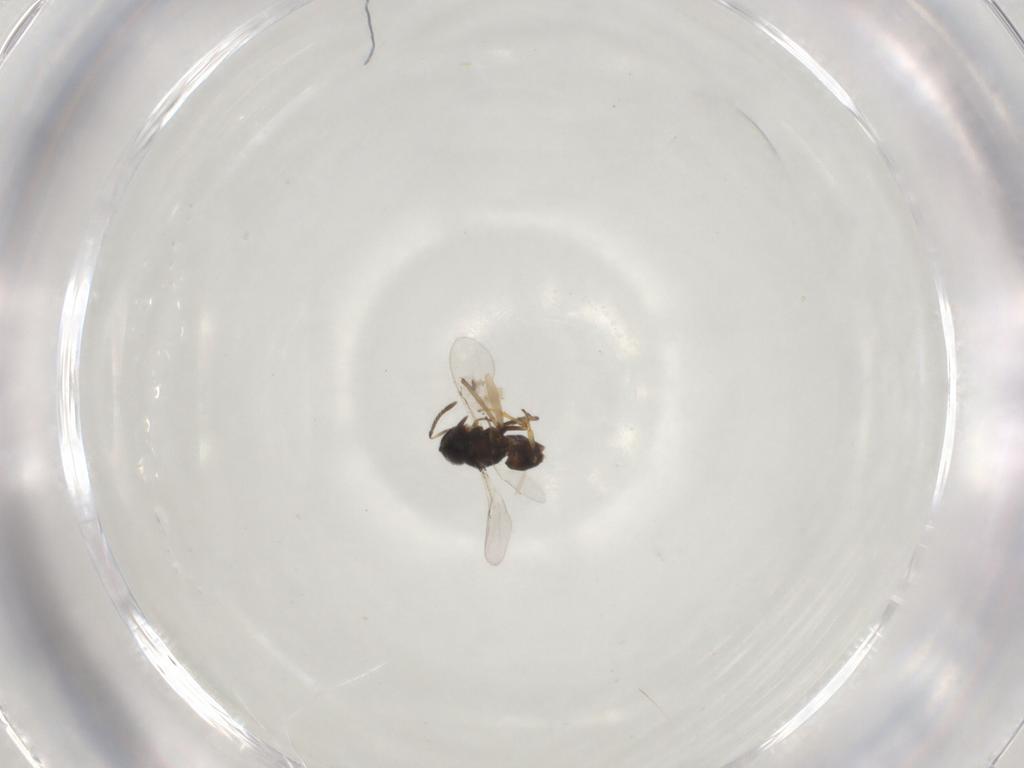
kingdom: Animalia
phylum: Arthropoda
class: Insecta
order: Diptera
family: Chironomidae
